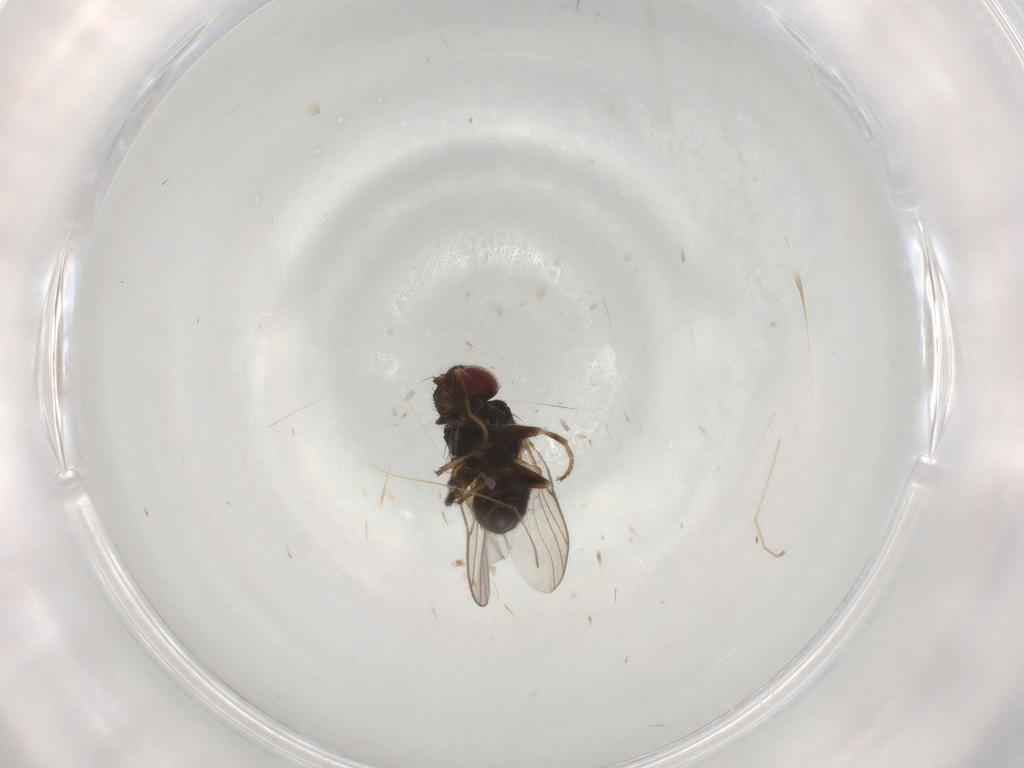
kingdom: Animalia
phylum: Arthropoda
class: Insecta
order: Diptera
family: Chloropidae
